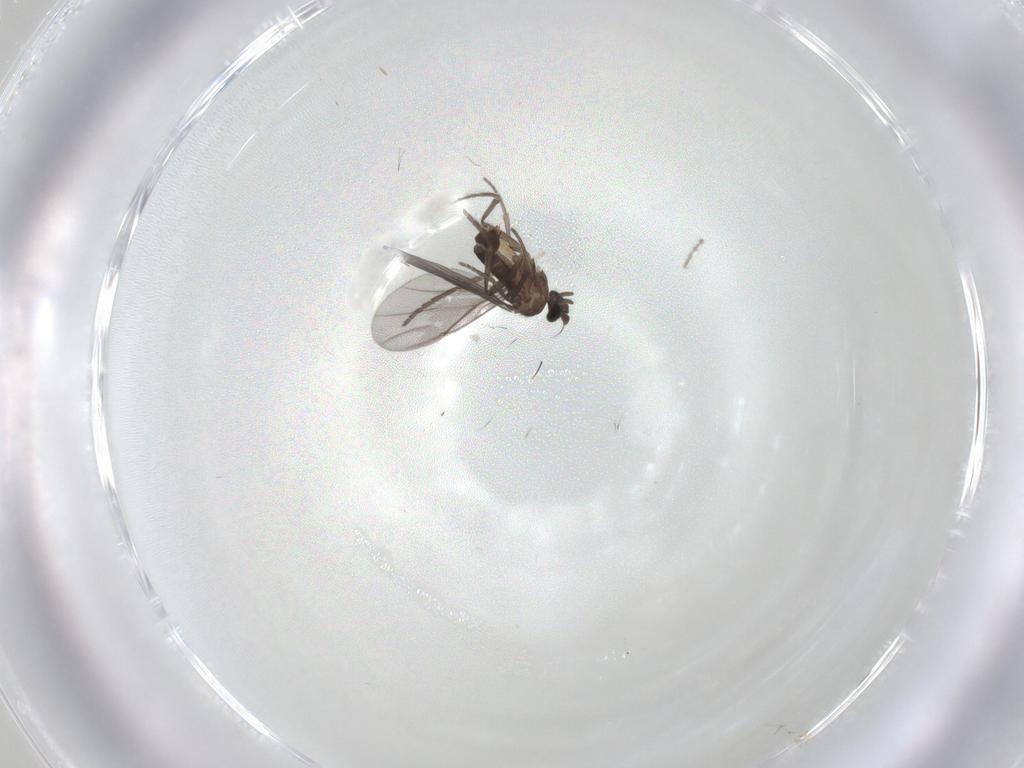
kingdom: Animalia
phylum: Arthropoda
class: Insecta
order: Diptera
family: Phoridae
